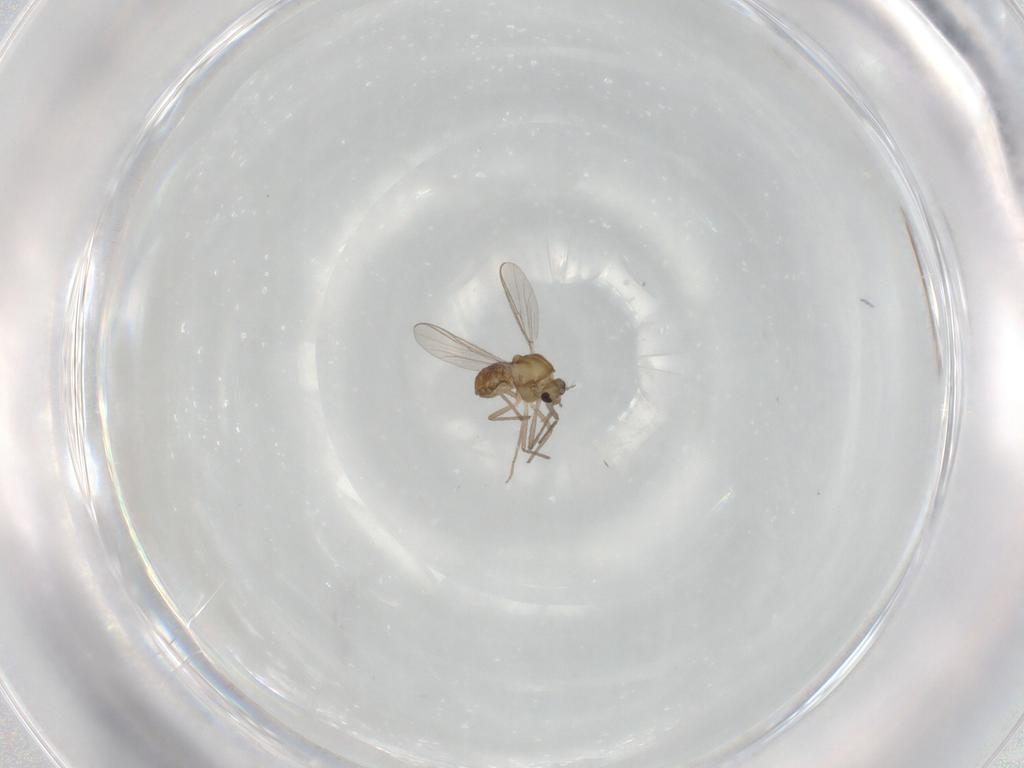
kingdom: Animalia
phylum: Arthropoda
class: Insecta
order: Diptera
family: Chironomidae
